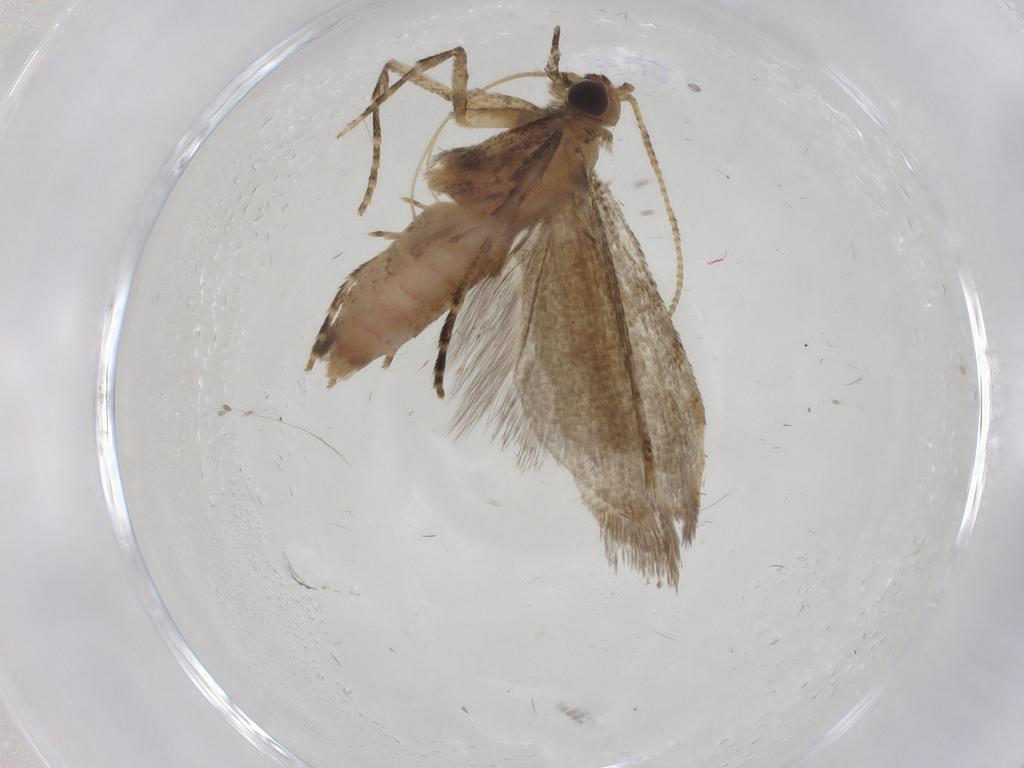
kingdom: Animalia
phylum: Arthropoda
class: Insecta
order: Lepidoptera
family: Depressariidae
